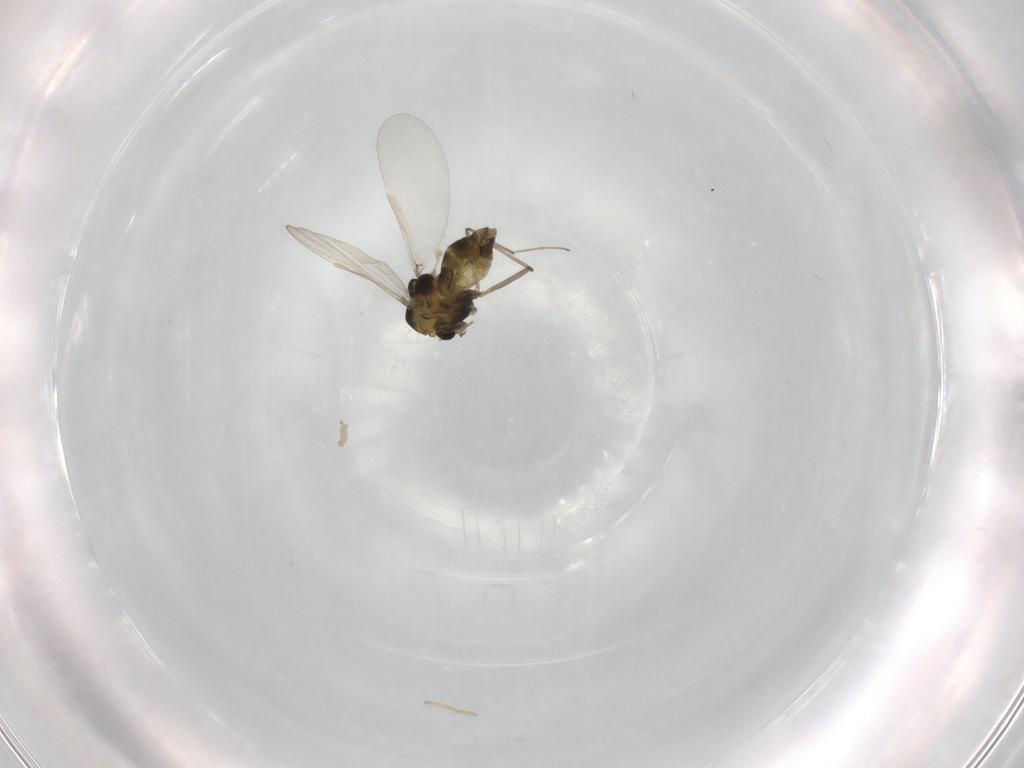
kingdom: Animalia
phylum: Arthropoda
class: Insecta
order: Diptera
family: Chironomidae
